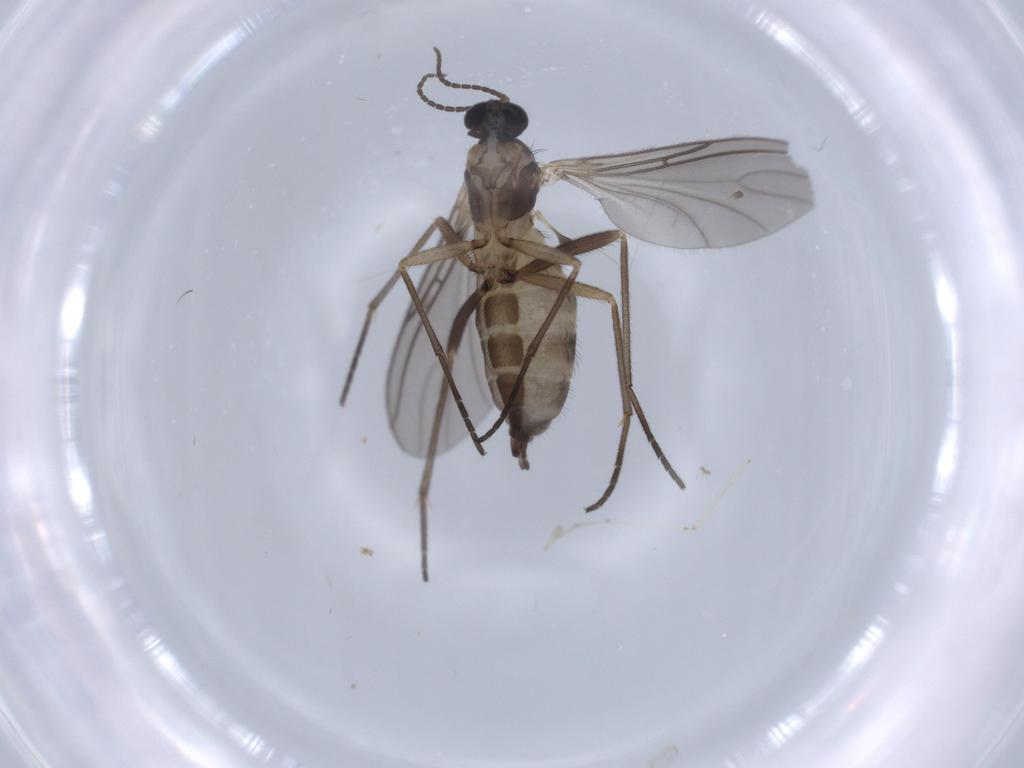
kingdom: Animalia
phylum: Arthropoda
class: Insecta
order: Diptera
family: Sciaridae
